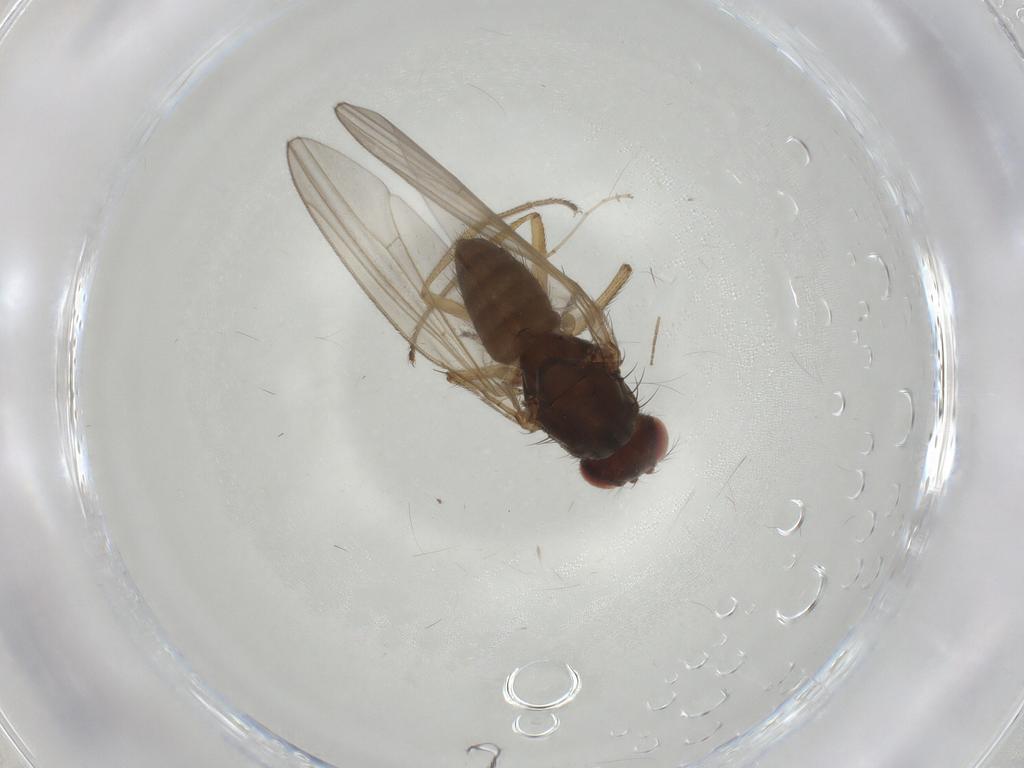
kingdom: Animalia
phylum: Arthropoda
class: Insecta
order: Diptera
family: Drosophilidae
